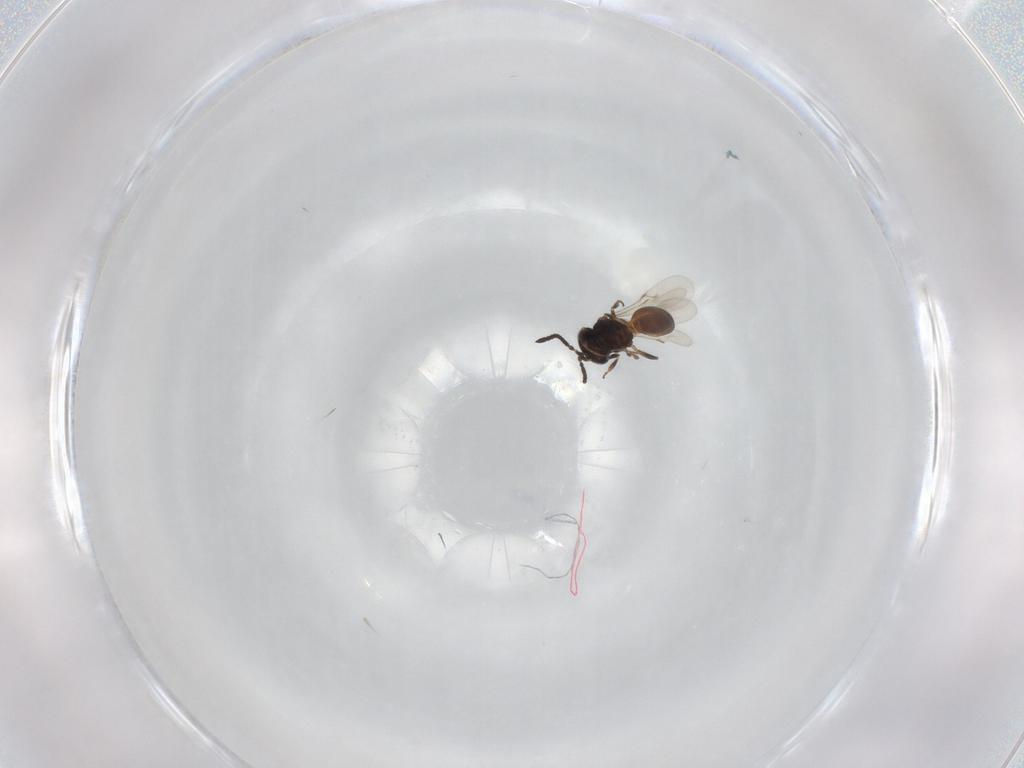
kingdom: Animalia
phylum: Arthropoda
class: Insecta
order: Hymenoptera
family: Scelionidae
